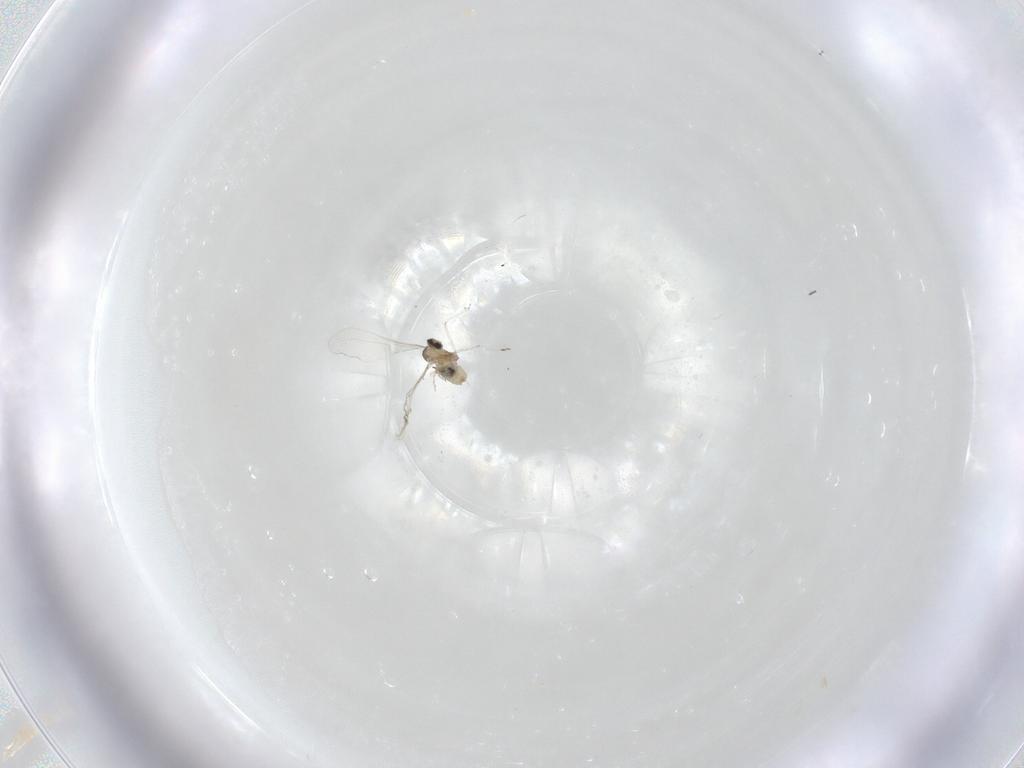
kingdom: Animalia
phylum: Arthropoda
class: Insecta
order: Diptera
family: Cecidomyiidae
